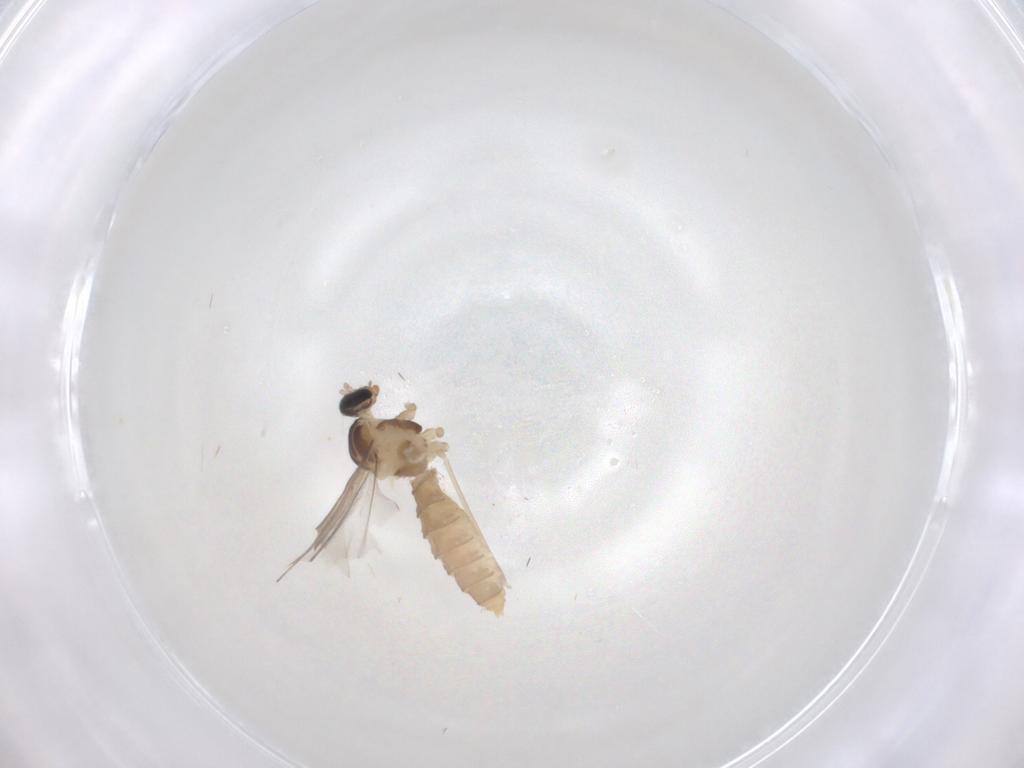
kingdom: Animalia
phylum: Arthropoda
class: Insecta
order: Diptera
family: Cecidomyiidae
